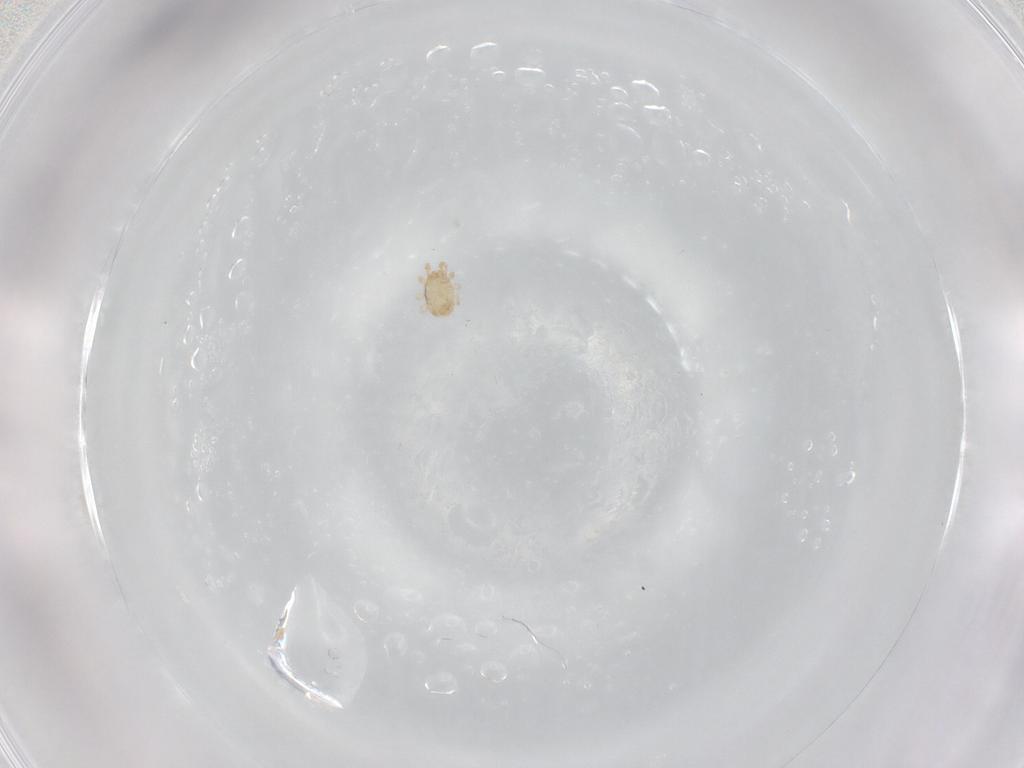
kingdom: Animalia
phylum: Arthropoda
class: Arachnida
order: Mesostigmata
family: Phytoseiidae
